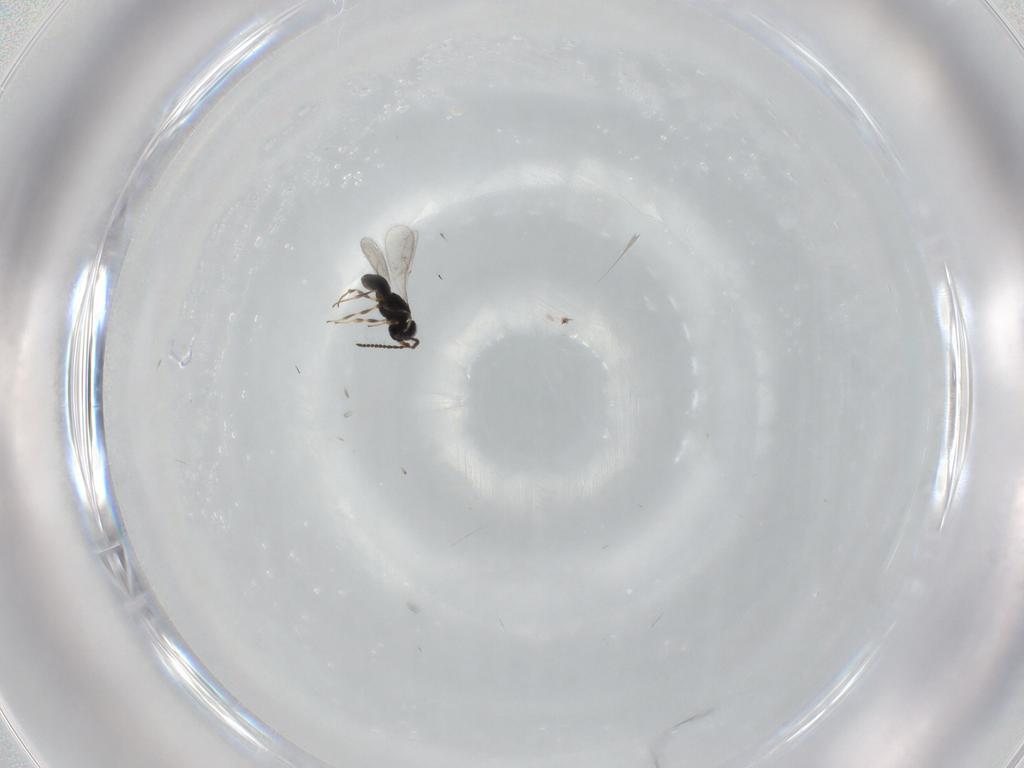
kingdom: Animalia
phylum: Arthropoda
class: Insecta
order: Hymenoptera
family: Scelionidae
